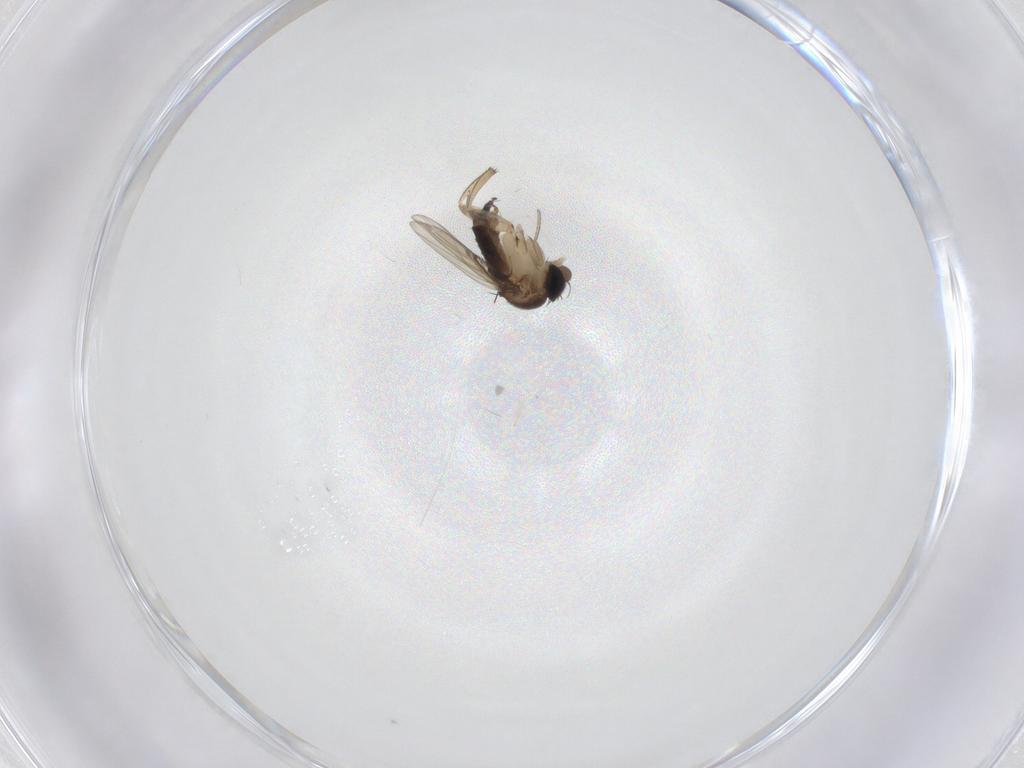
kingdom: Animalia
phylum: Arthropoda
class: Insecta
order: Diptera
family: Cecidomyiidae
